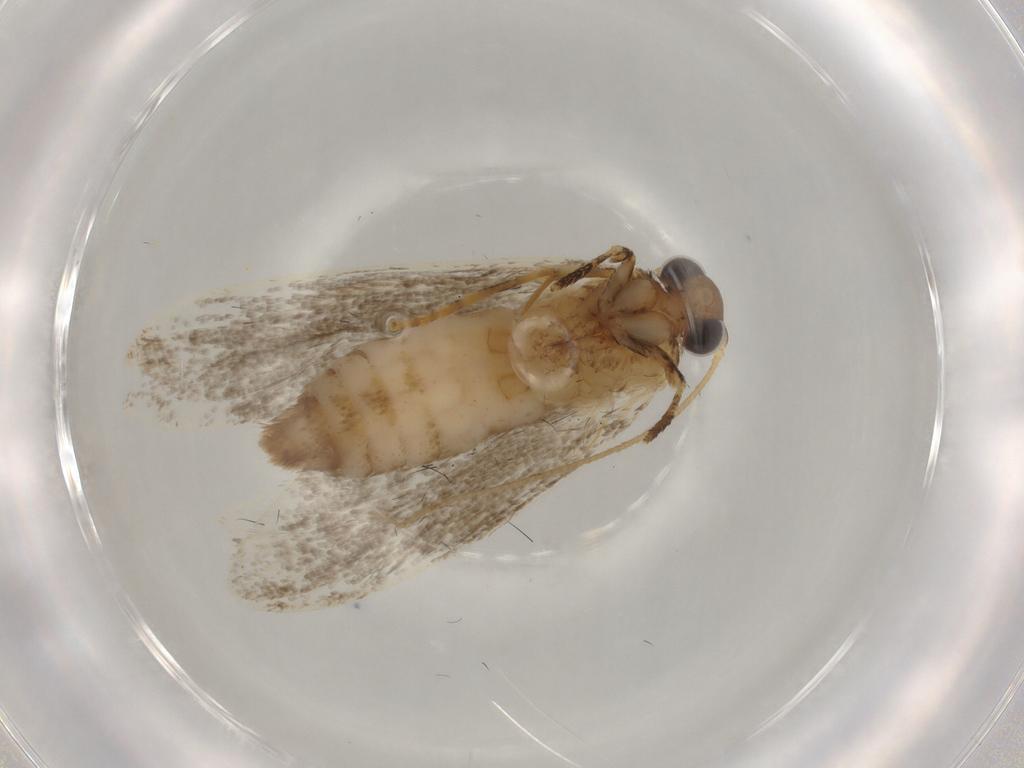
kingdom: Animalia
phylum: Arthropoda
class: Insecta
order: Lepidoptera
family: Tineidae
